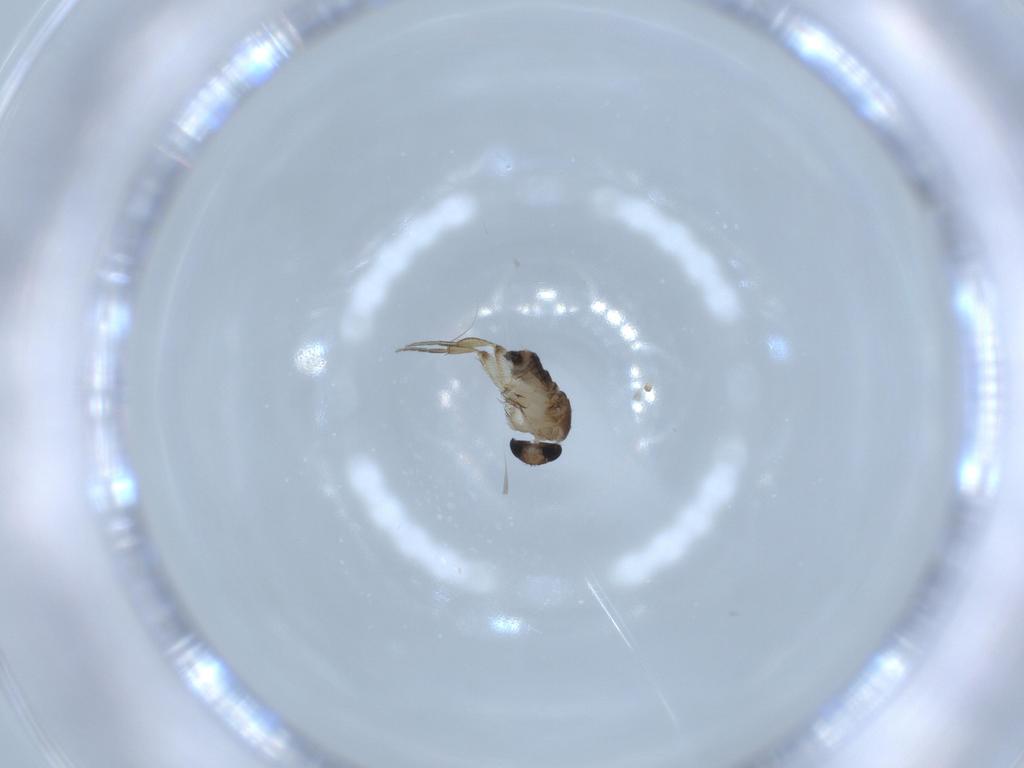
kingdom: Animalia
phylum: Arthropoda
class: Insecta
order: Diptera
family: Phoridae
